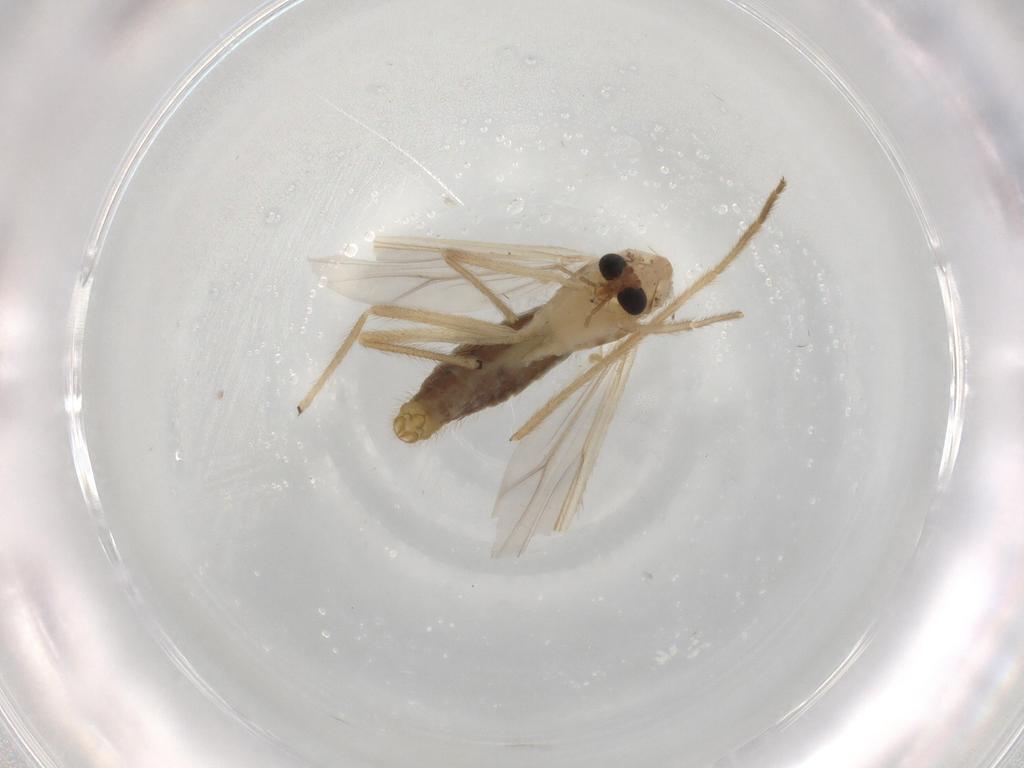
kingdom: Animalia
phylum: Arthropoda
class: Insecta
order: Diptera
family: Chironomidae
